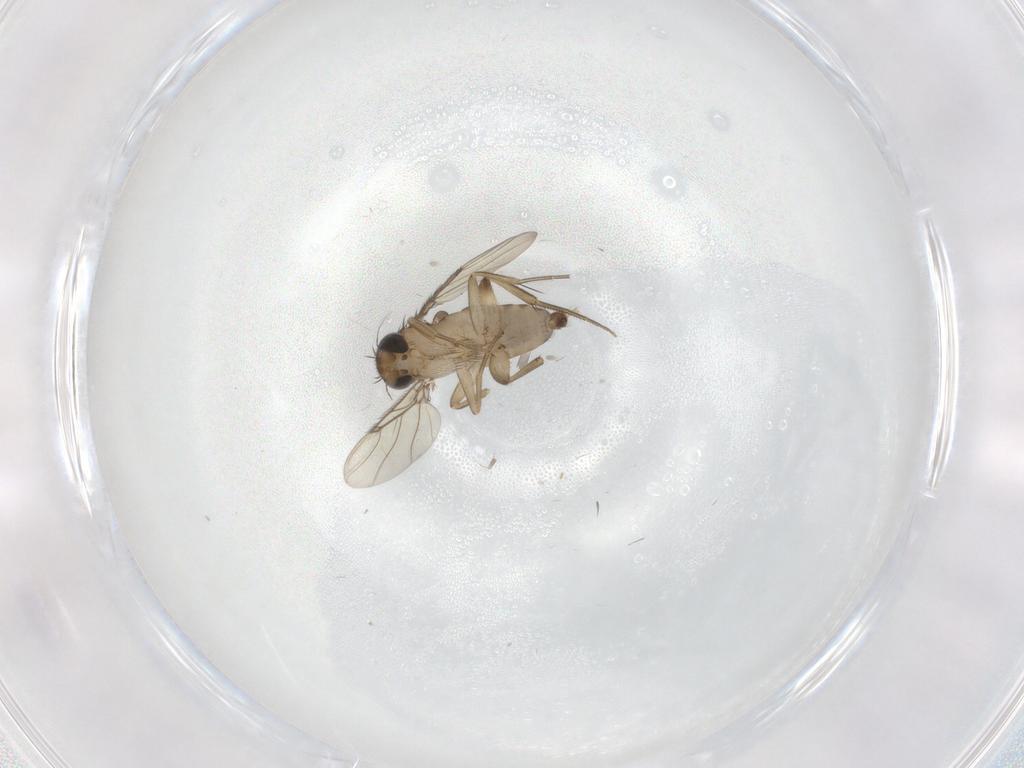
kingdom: Animalia
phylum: Arthropoda
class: Insecta
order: Diptera
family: Phoridae
